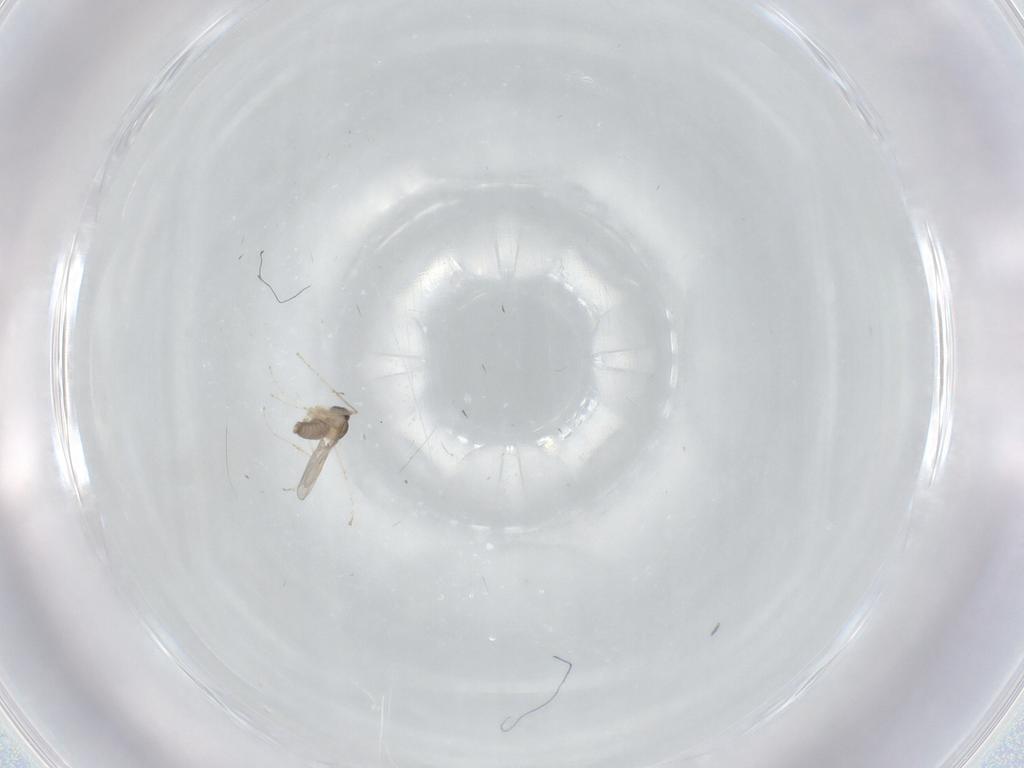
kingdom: Animalia
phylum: Arthropoda
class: Insecta
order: Diptera
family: Cecidomyiidae
